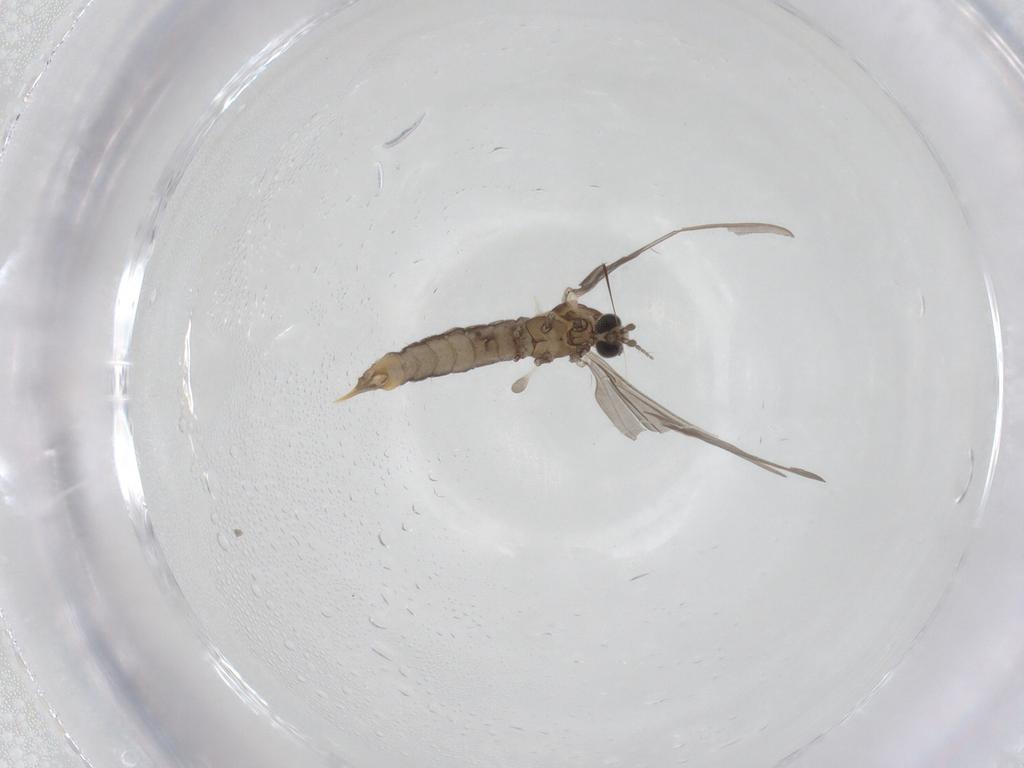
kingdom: Animalia
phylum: Arthropoda
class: Insecta
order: Diptera
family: Limoniidae
